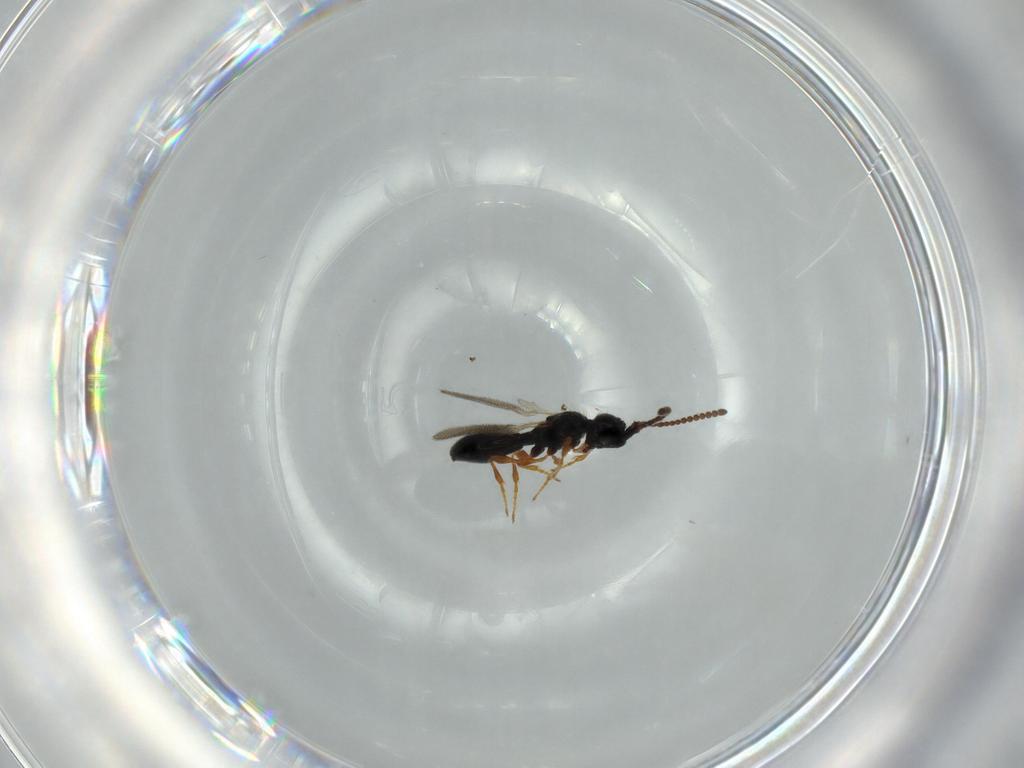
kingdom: Animalia
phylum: Arthropoda
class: Insecta
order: Hymenoptera
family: Diapriidae
